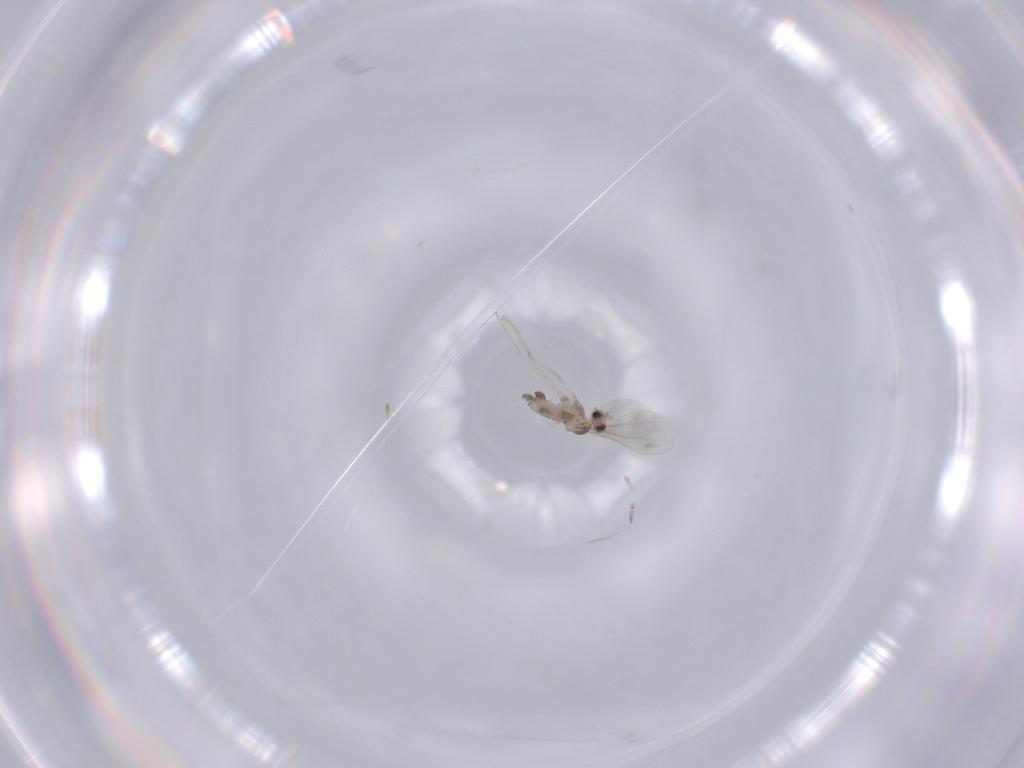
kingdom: Animalia
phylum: Arthropoda
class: Insecta
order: Diptera
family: Cecidomyiidae
